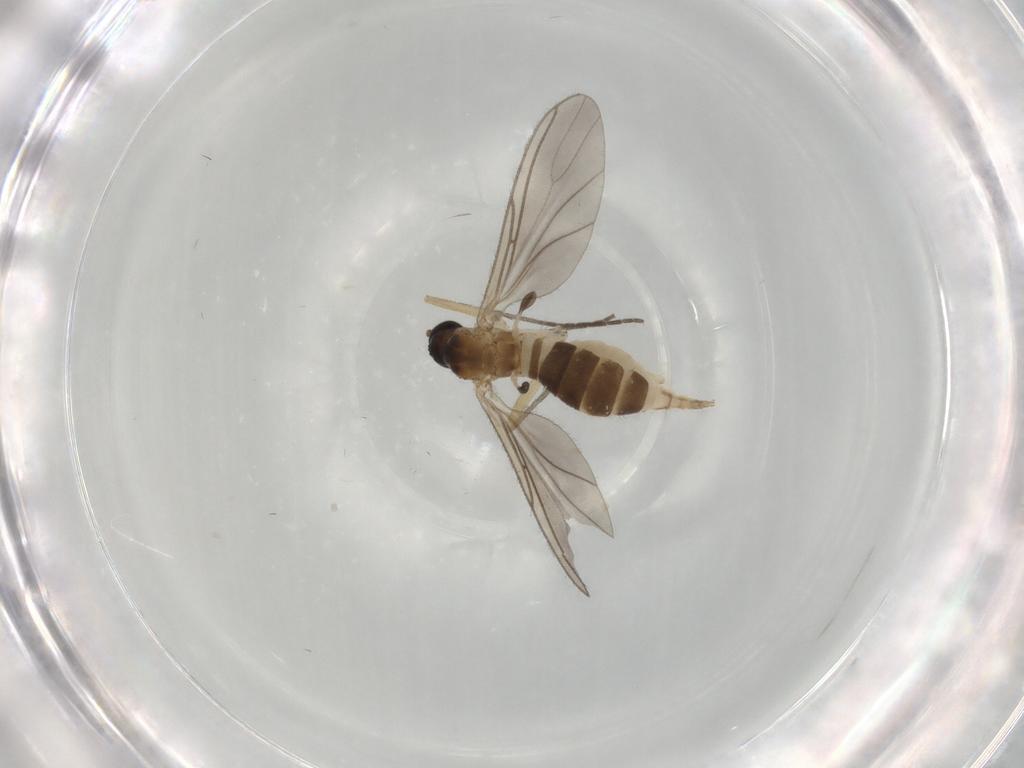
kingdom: Animalia
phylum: Arthropoda
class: Insecta
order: Diptera
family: Sciaridae
